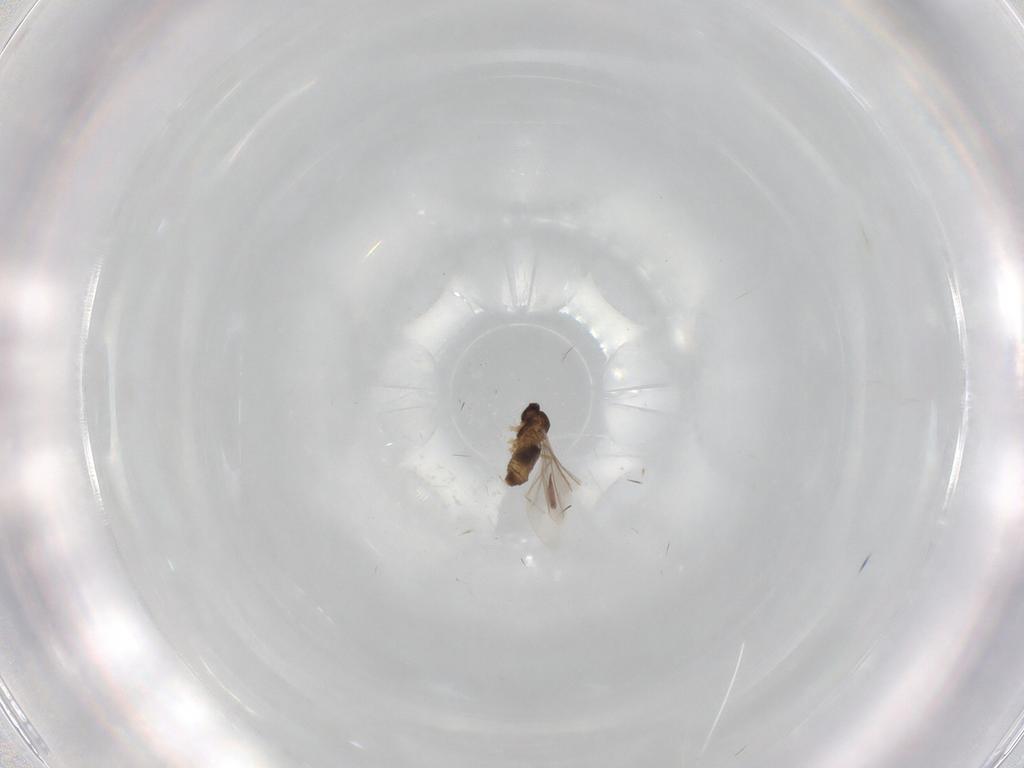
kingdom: Animalia
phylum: Arthropoda
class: Insecta
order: Diptera
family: Cecidomyiidae
